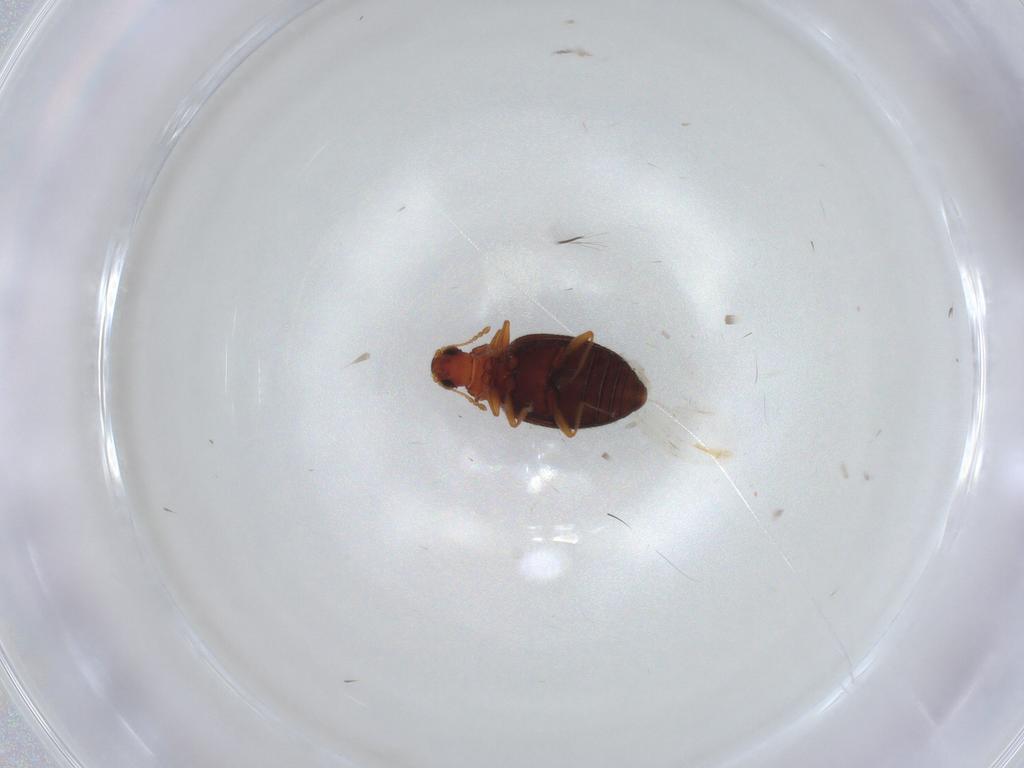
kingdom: Animalia
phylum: Arthropoda
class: Insecta
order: Coleoptera
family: Latridiidae
